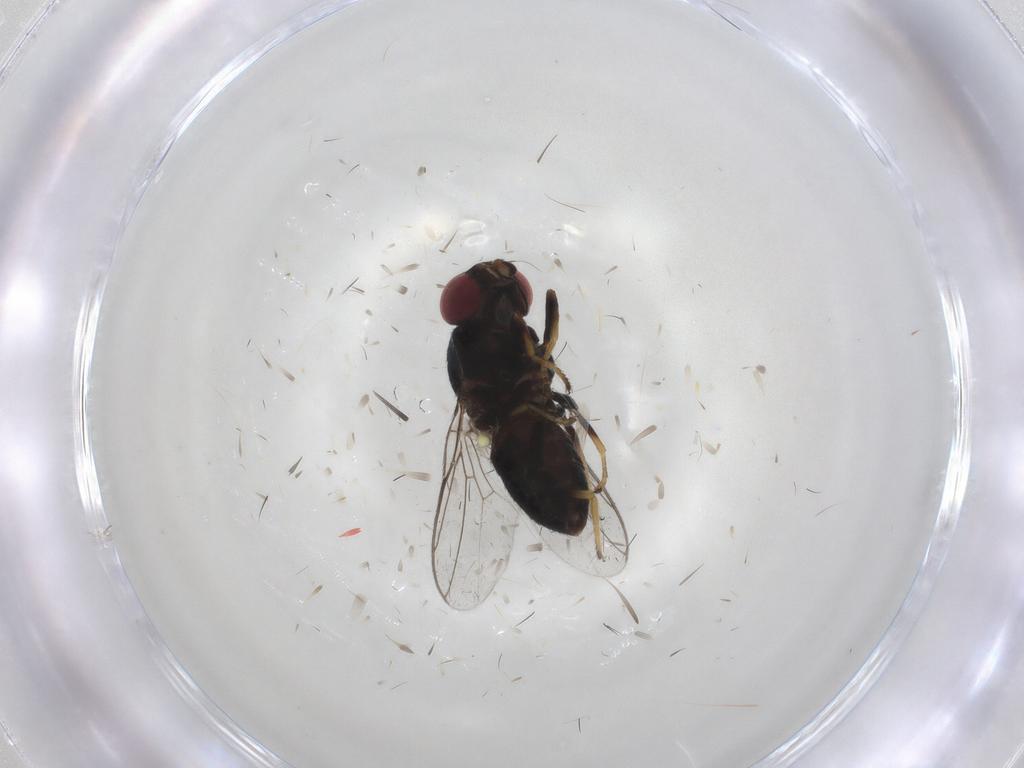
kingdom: Animalia
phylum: Arthropoda
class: Insecta
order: Diptera
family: Chloropidae
